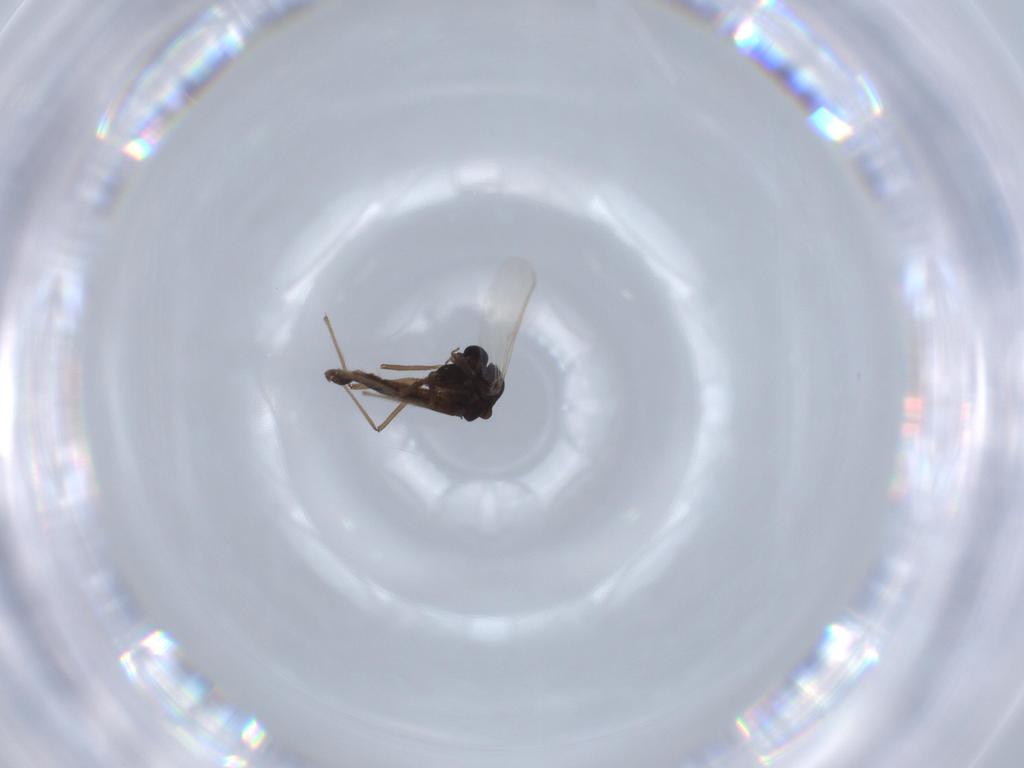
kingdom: Animalia
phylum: Arthropoda
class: Insecta
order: Diptera
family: Chironomidae
